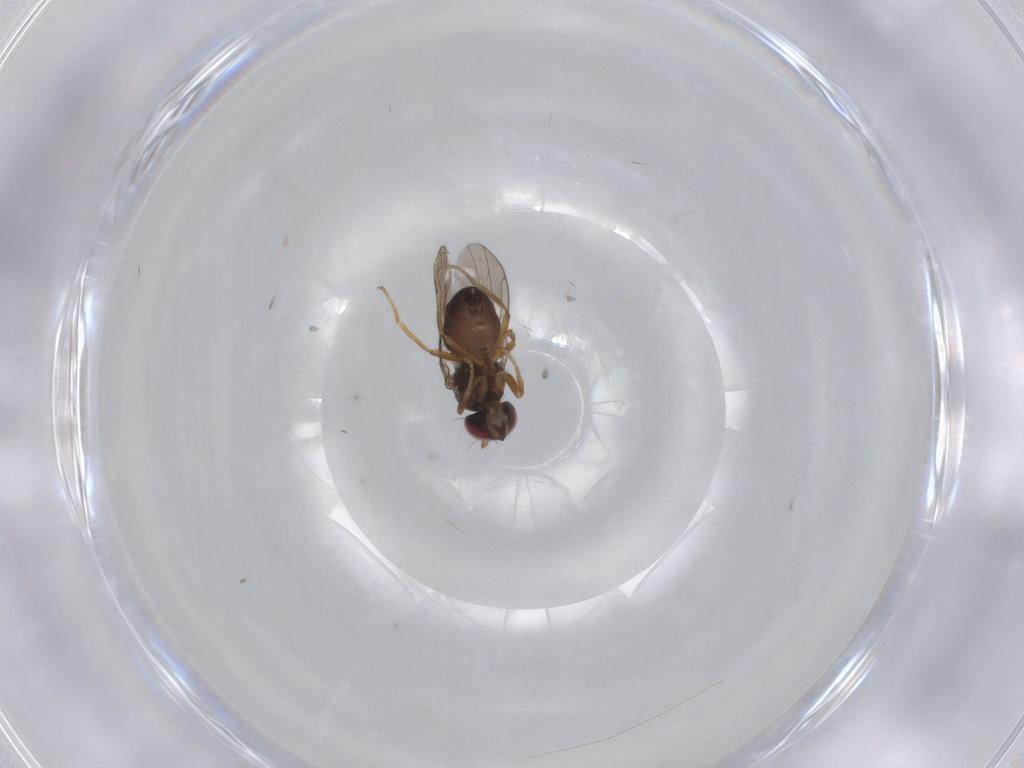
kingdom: Animalia
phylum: Arthropoda
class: Insecta
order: Diptera
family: Ephydridae
